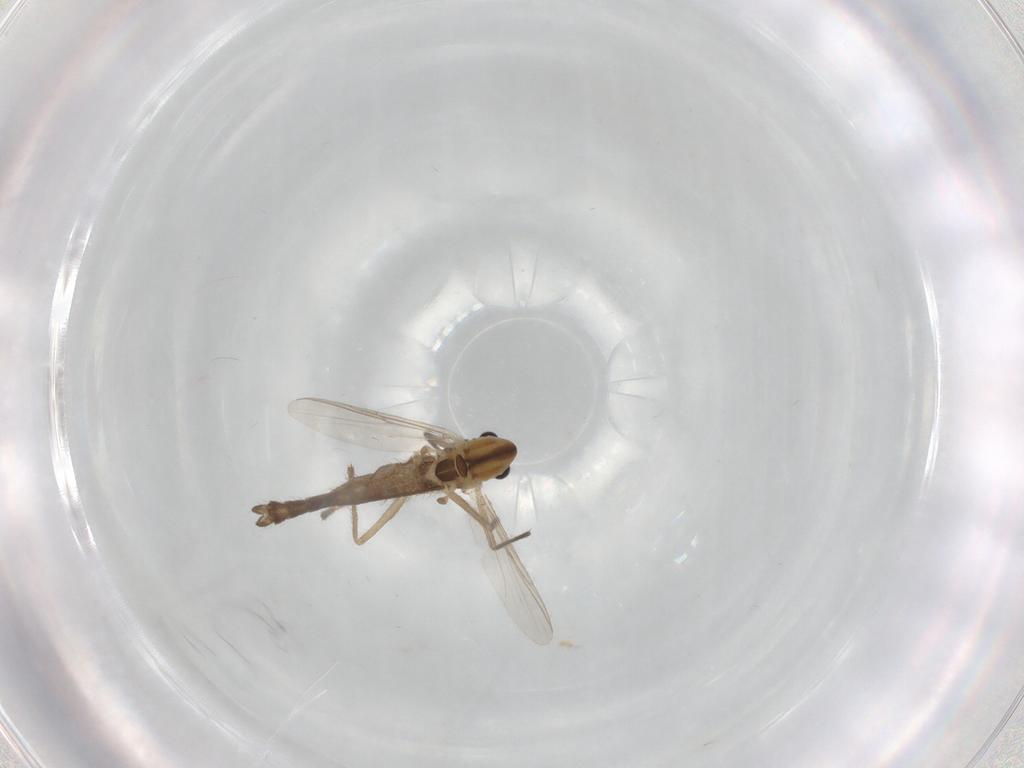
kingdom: Animalia
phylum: Arthropoda
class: Insecta
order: Diptera
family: Chironomidae
